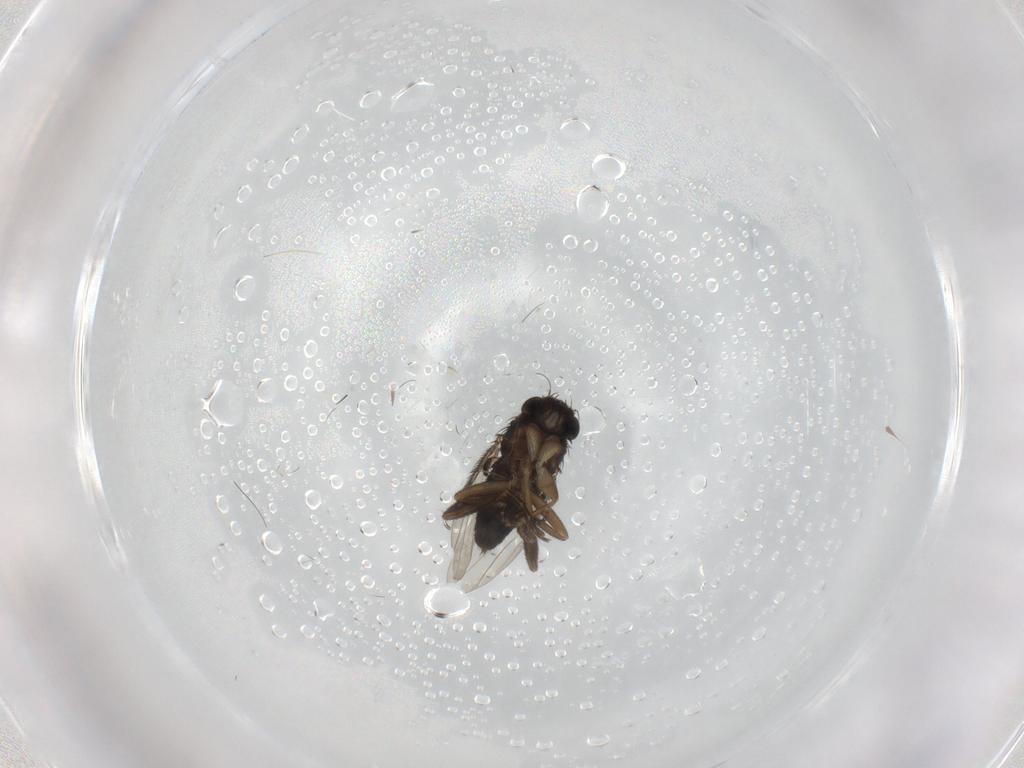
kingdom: Animalia
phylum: Arthropoda
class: Insecta
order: Diptera
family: Phoridae
